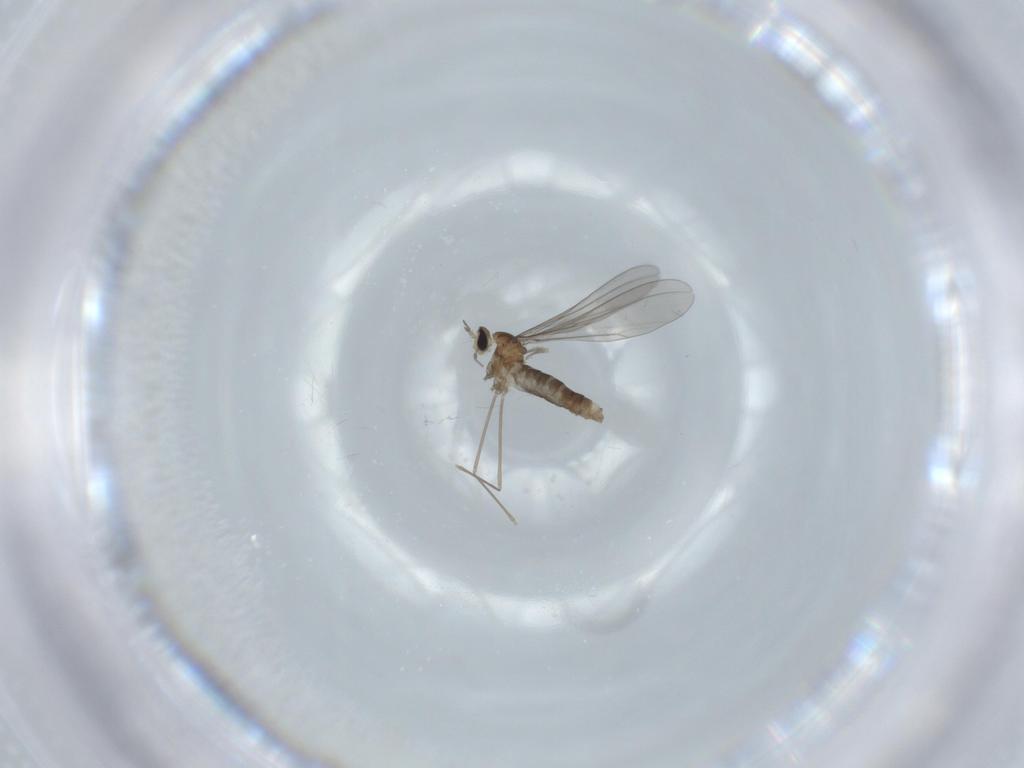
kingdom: Animalia
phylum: Arthropoda
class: Insecta
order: Diptera
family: Cecidomyiidae
